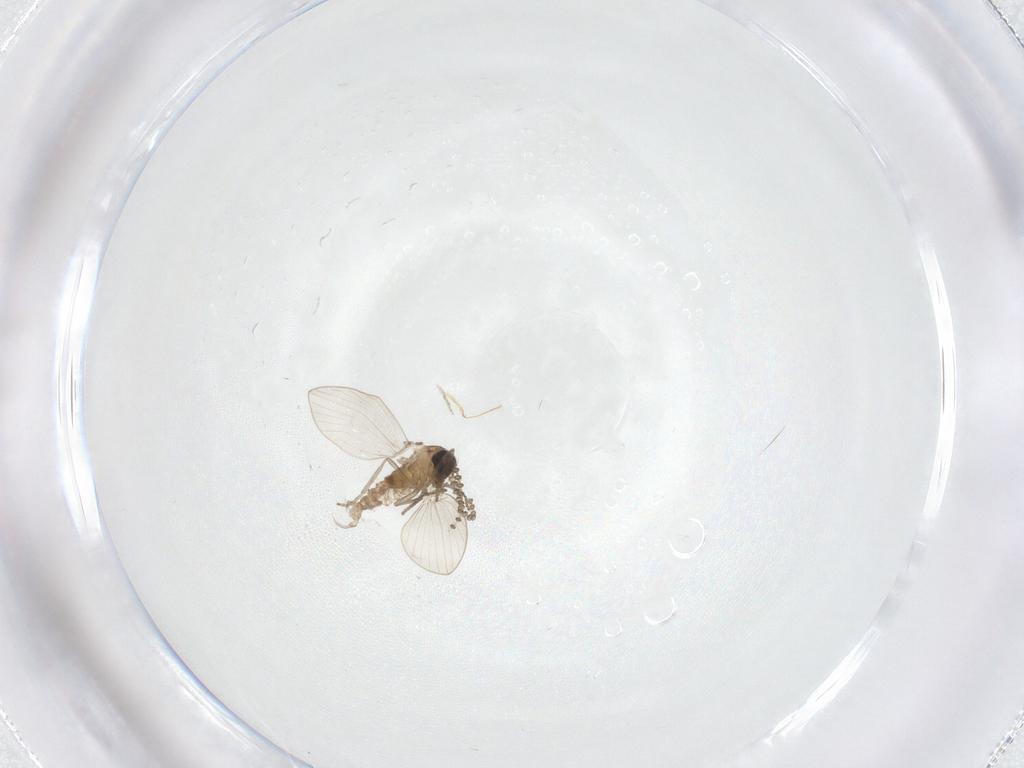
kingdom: Animalia
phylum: Arthropoda
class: Insecta
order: Diptera
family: Psychodidae
